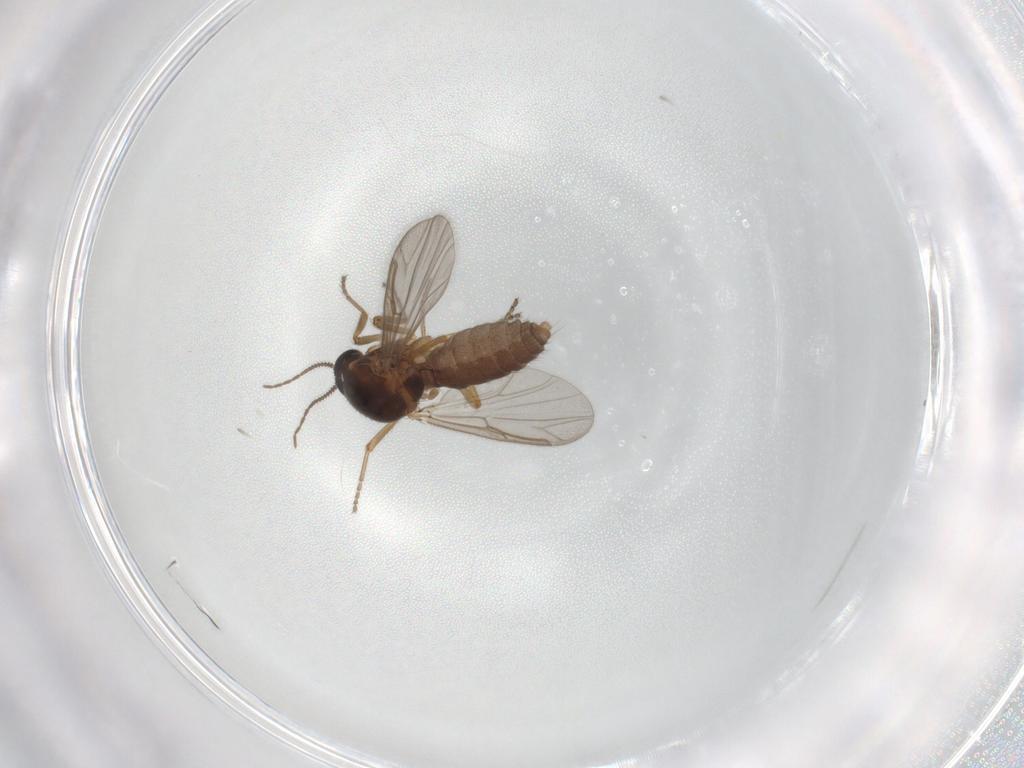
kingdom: Animalia
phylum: Arthropoda
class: Insecta
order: Diptera
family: Ceratopogonidae
